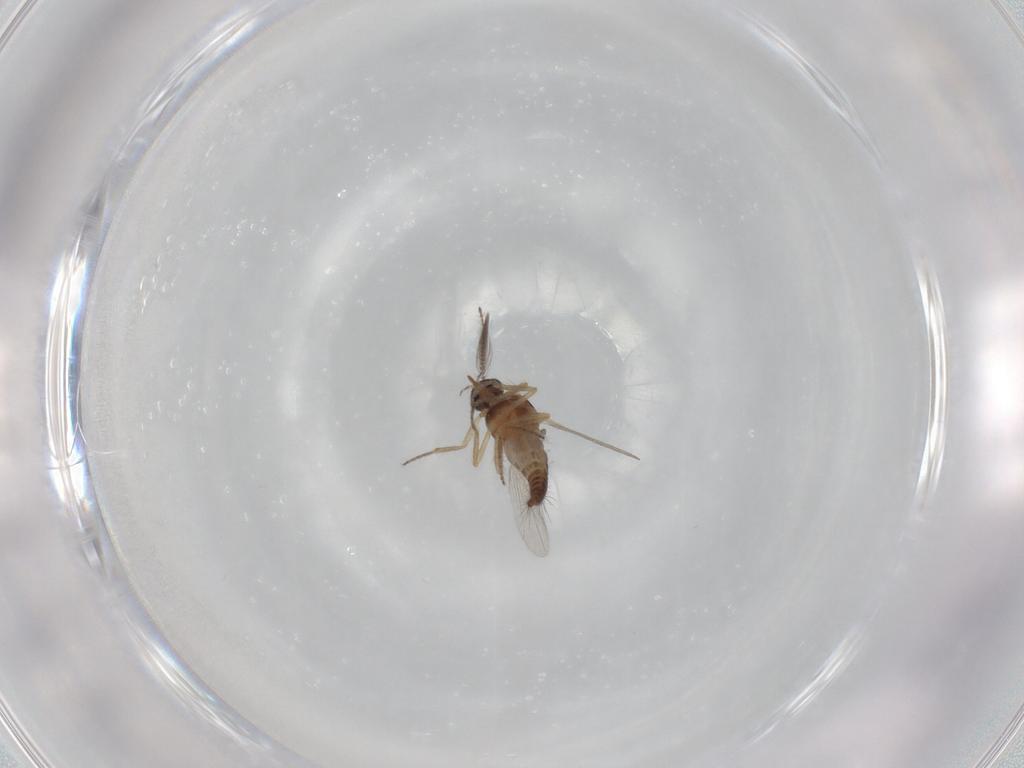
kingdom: Animalia
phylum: Arthropoda
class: Insecta
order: Diptera
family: Ceratopogonidae
